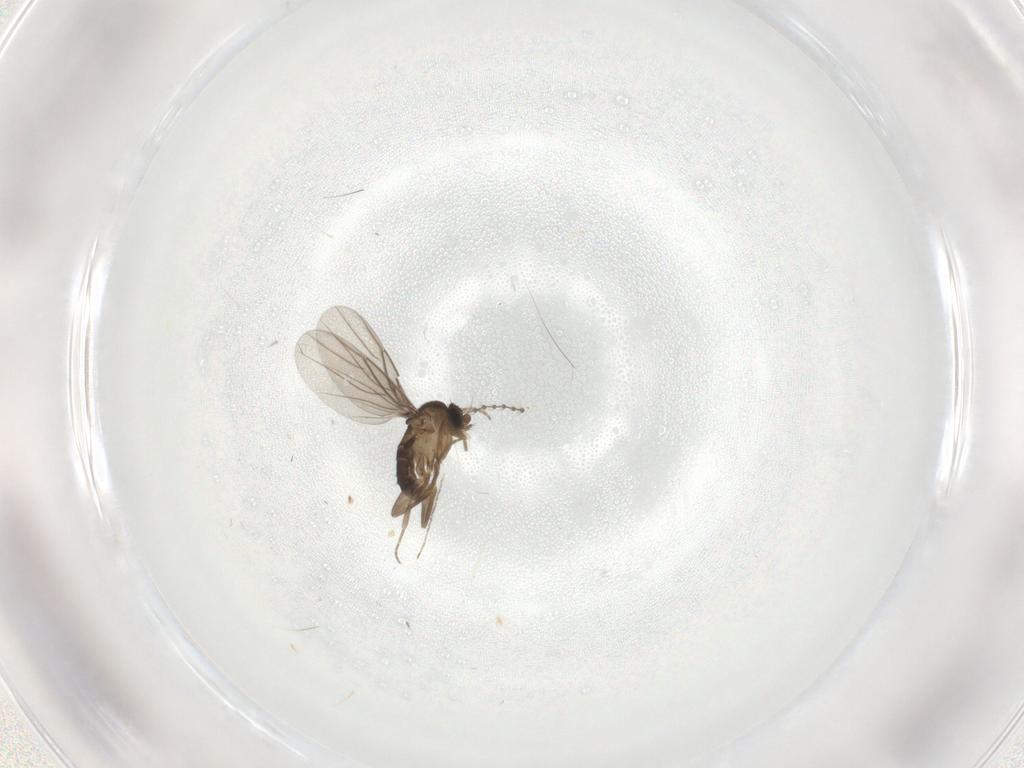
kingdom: Animalia
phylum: Arthropoda
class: Insecta
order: Diptera
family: Phoridae
